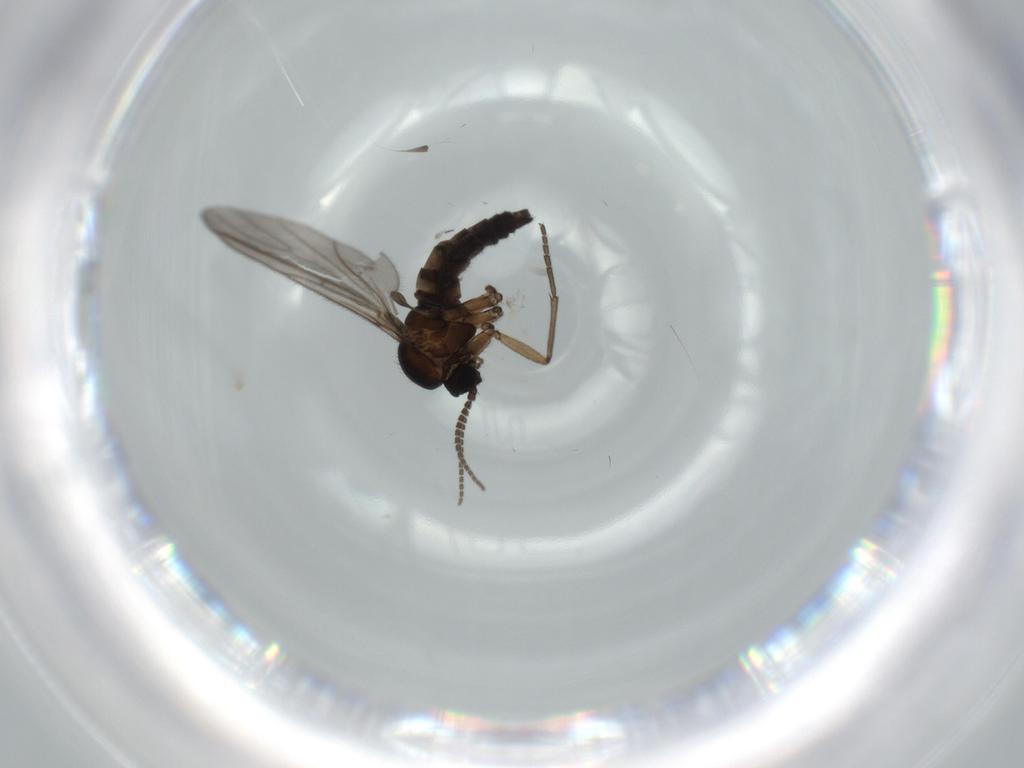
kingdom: Animalia
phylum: Arthropoda
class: Insecta
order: Diptera
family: Sciaridae
